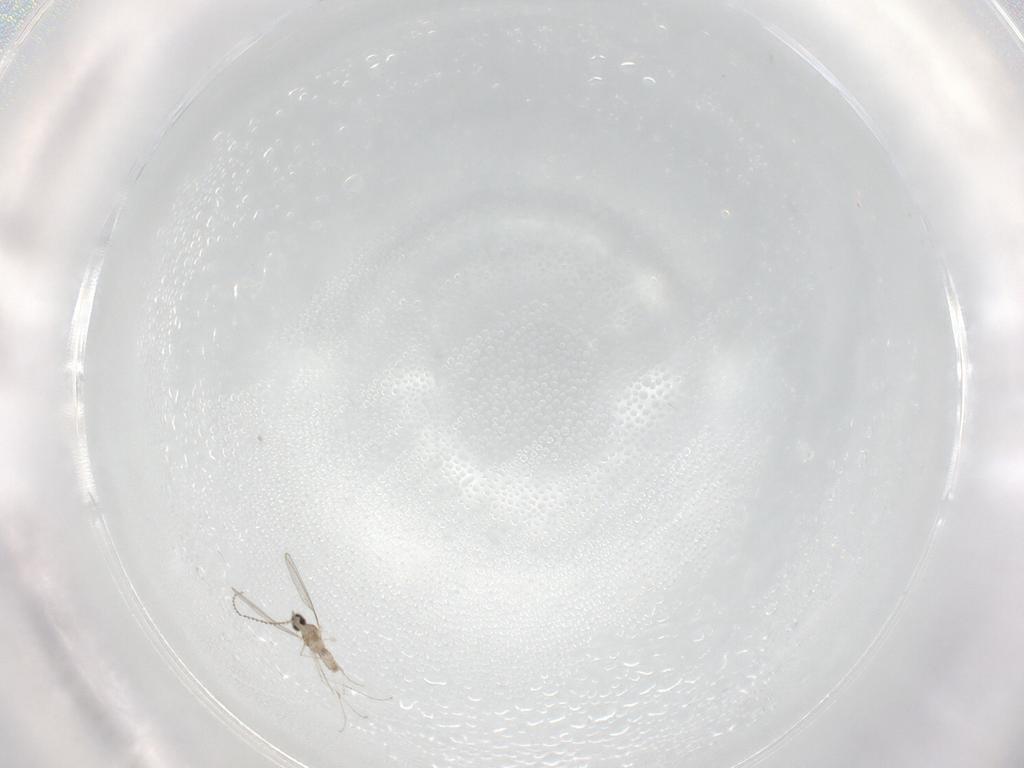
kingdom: Animalia
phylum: Arthropoda
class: Insecta
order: Diptera
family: Cecidomyiidae
